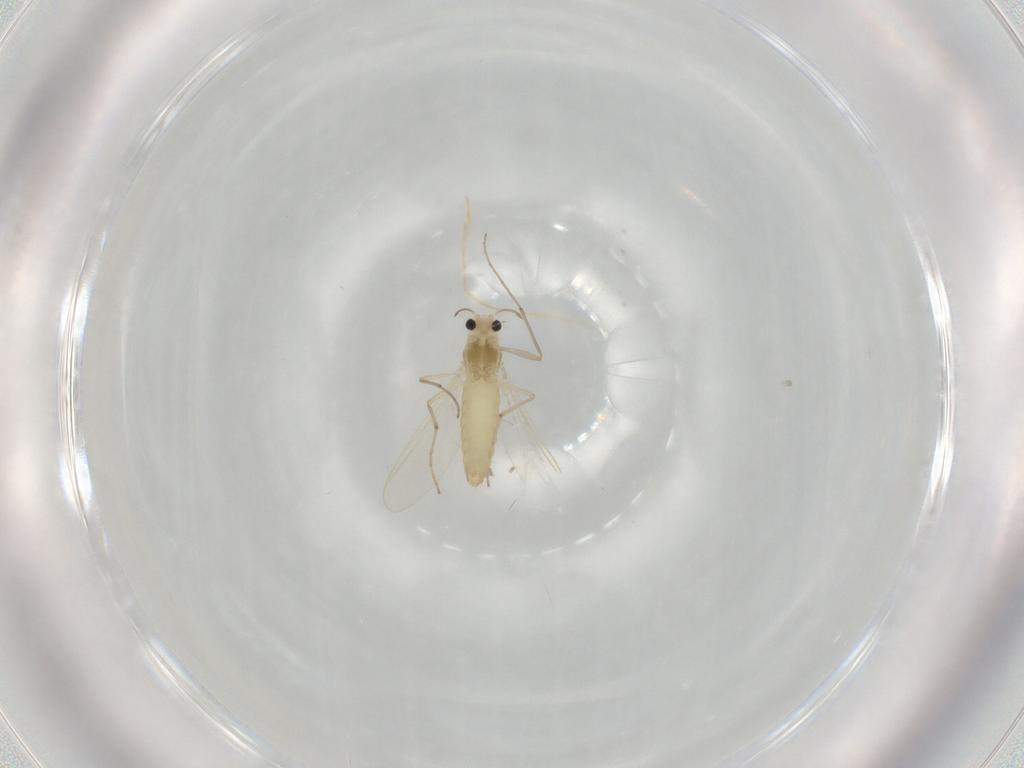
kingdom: Animalia
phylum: Arthropoda
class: Insecta
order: Diptera
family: Chironomidae
